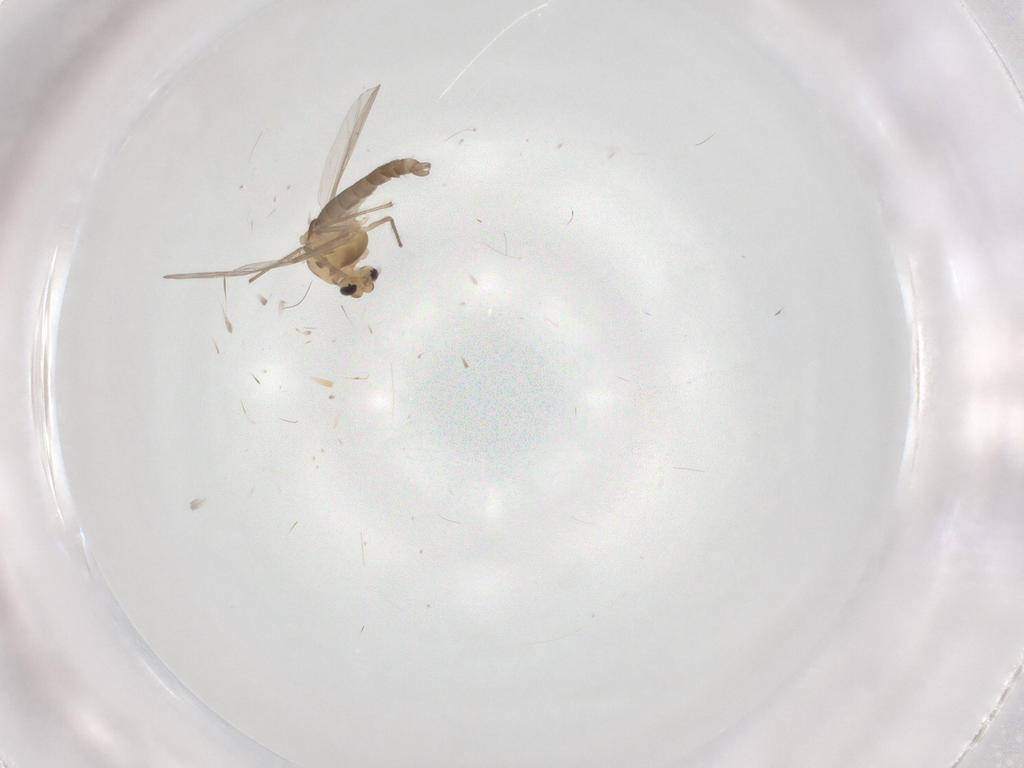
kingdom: Animalia
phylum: Arthropoda
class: Insecta
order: Diptera
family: Chironomidae
